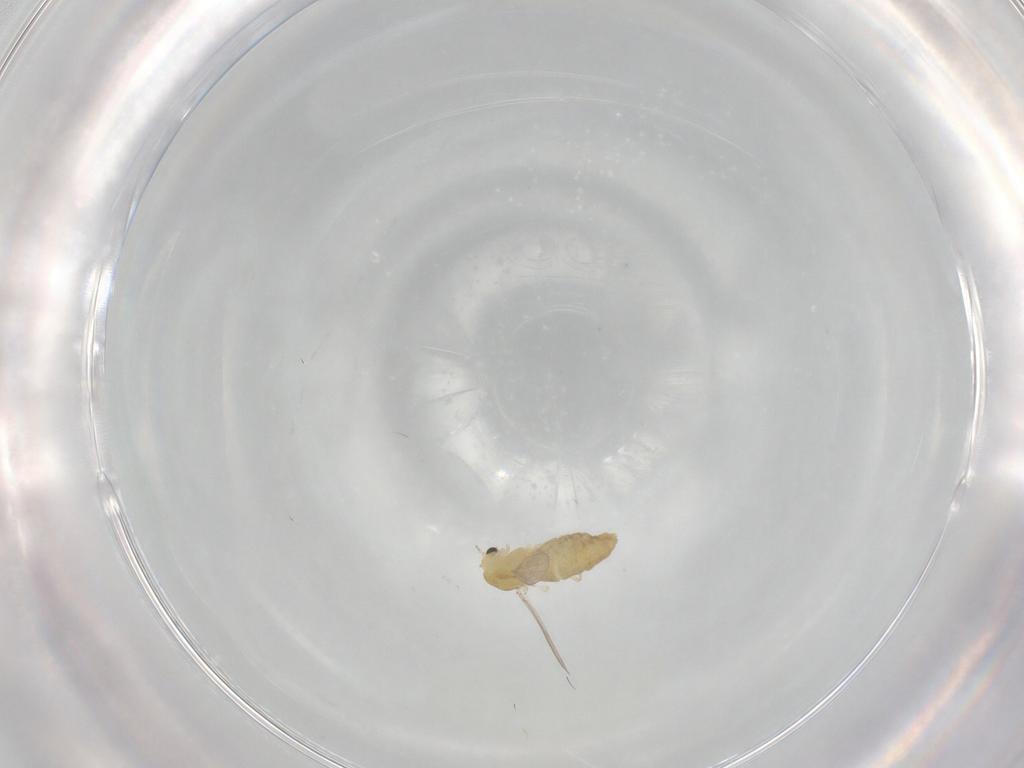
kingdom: Animalia
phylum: Arthropoda
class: Insecta
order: Diptera
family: Chironomidae
